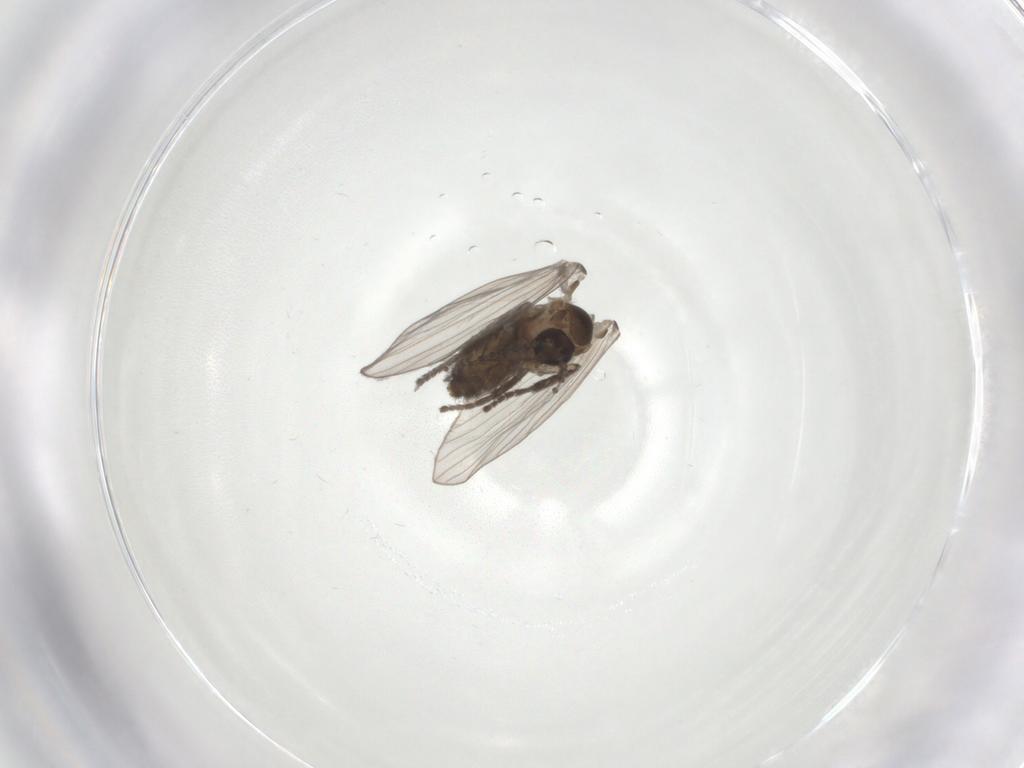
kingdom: Animalia
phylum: Arthropoda
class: Insecta
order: Diptera
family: Psychodidae
